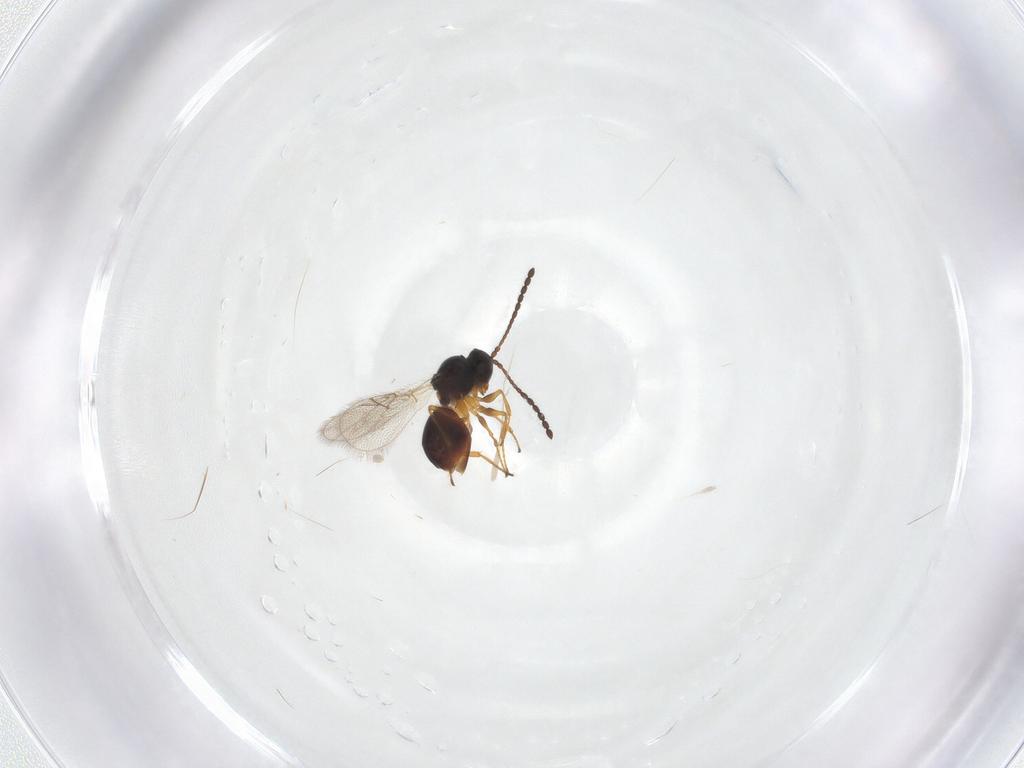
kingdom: Animalia
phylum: Arthropoda
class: Insecta
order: Hymenoptera
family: Figitidae
